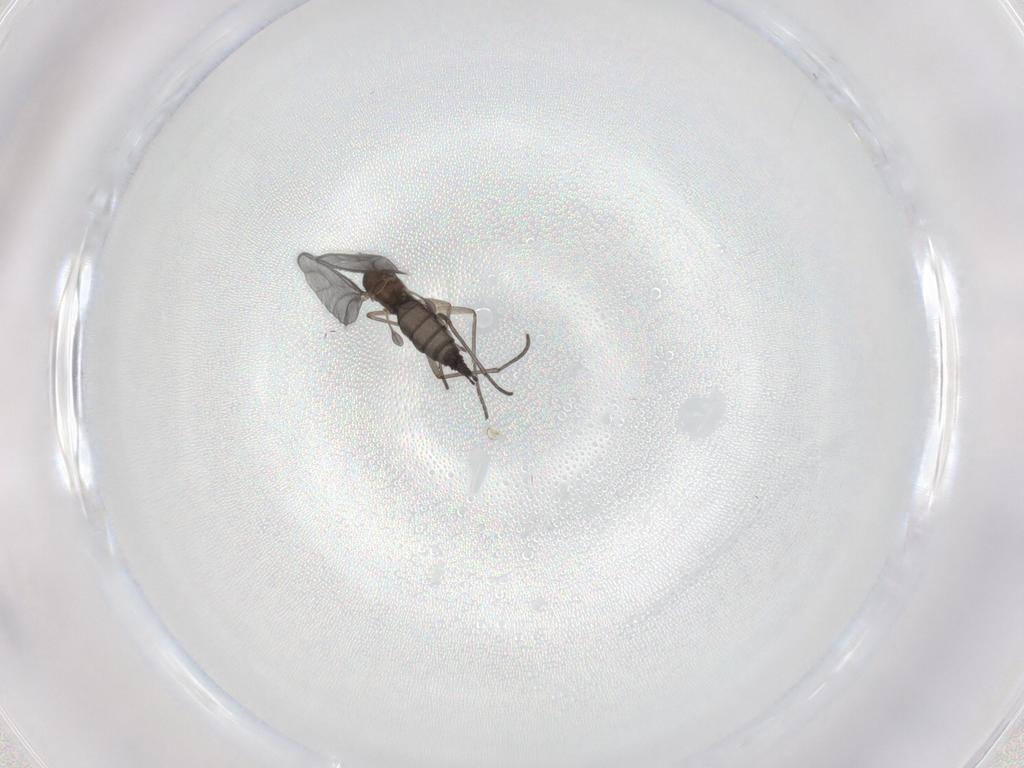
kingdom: Animalia
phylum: Arthropoda
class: Insecta
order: Diptera
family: Sciaridae
